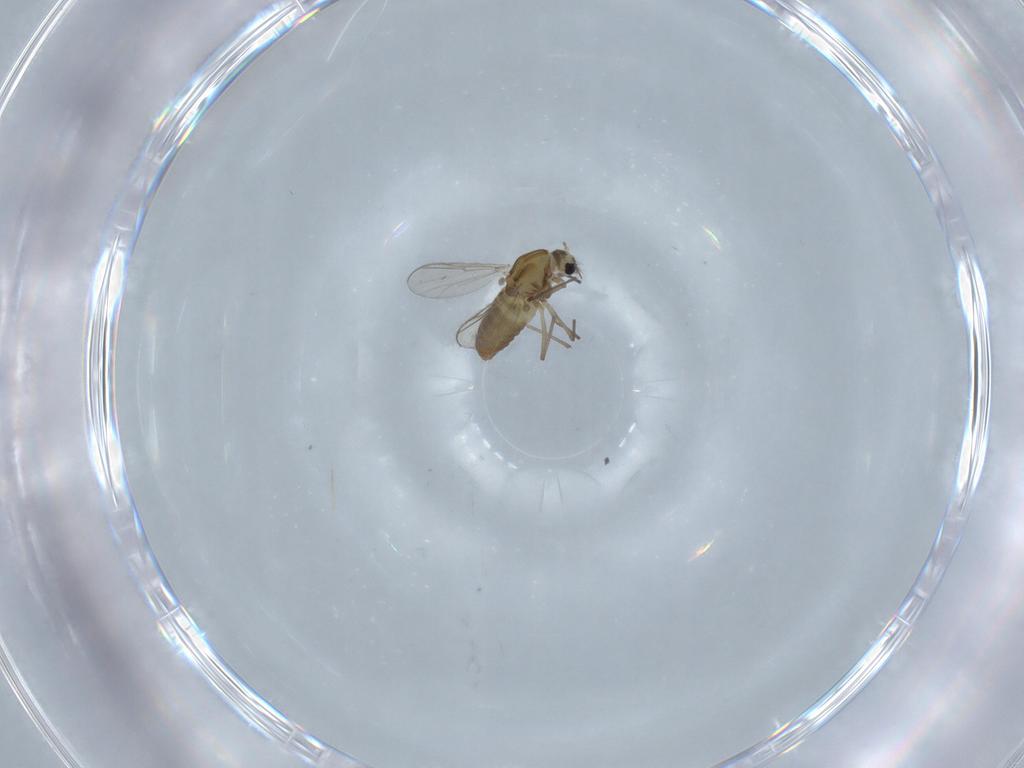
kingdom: Animalia
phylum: Arthropoda
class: Insecta
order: Diptera
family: Chironomidae
